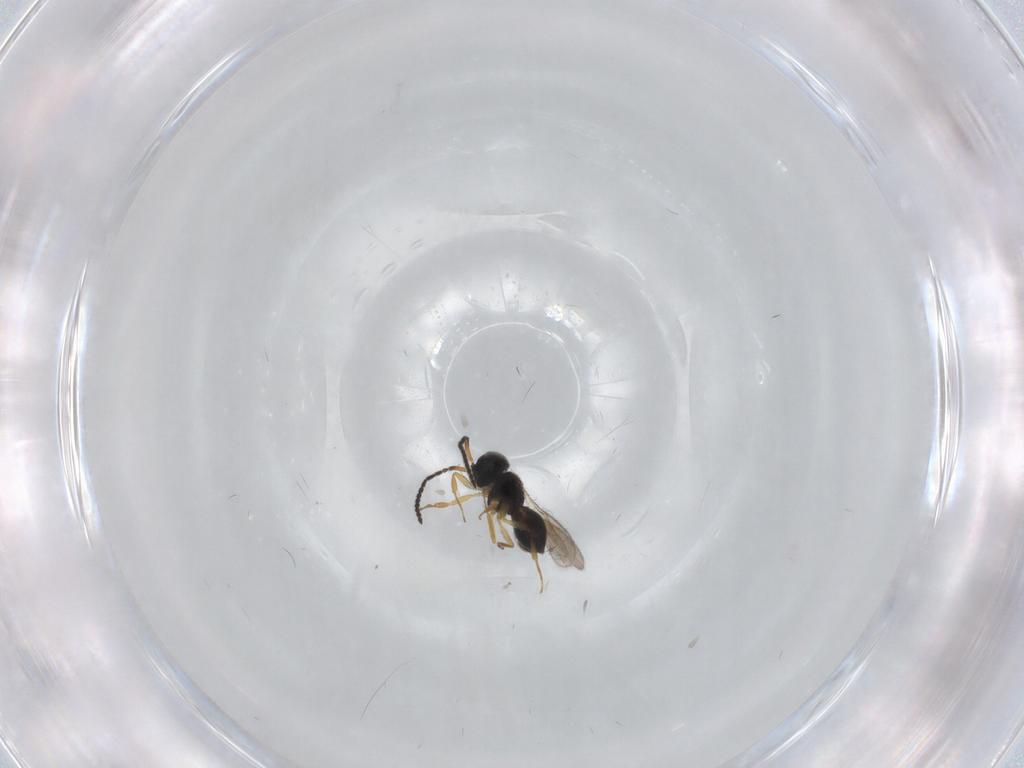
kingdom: Animalia
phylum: Arthropoda
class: Insecta
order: Hymenoptera
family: Scelionidae
